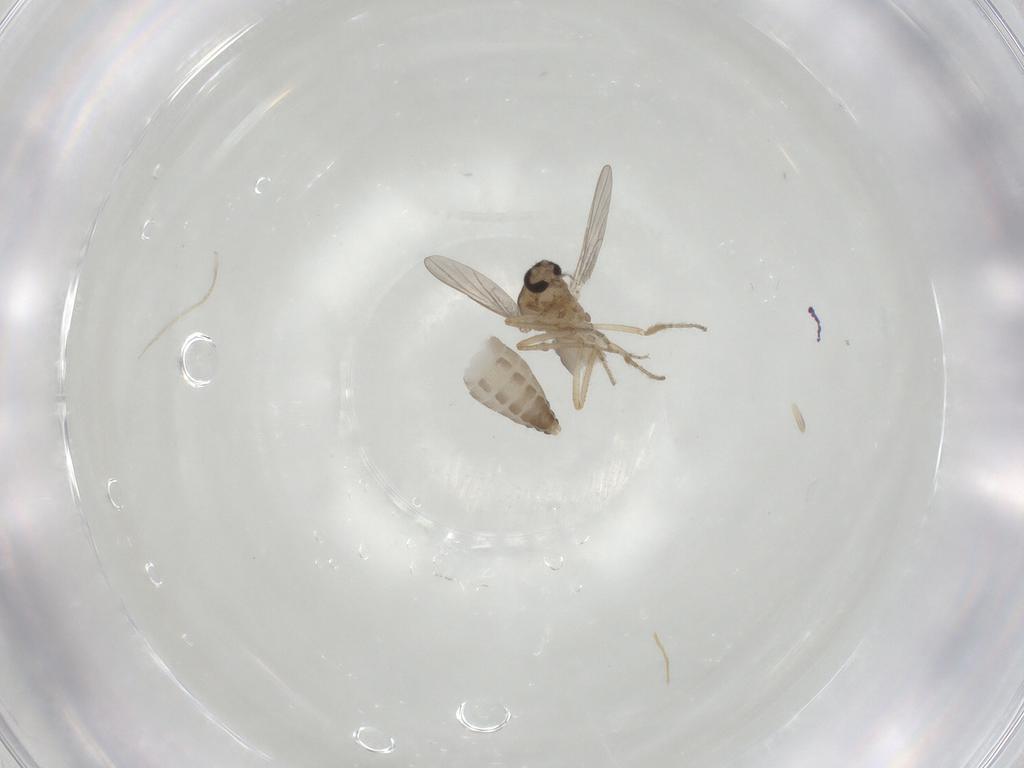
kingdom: Animalia
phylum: Arthropoda
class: Insecta
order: Diptera
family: Ceratopogonidae
